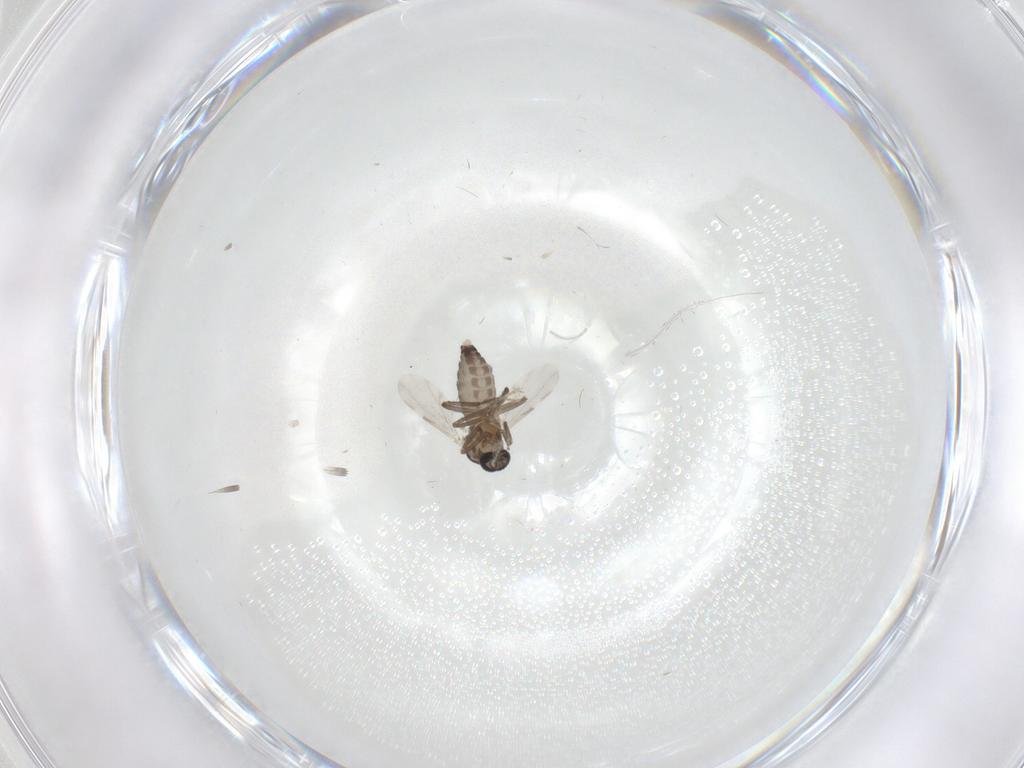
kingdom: Animalia
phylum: Arthropoda
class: Insecta
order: Diptera
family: Ceratopogonidae
